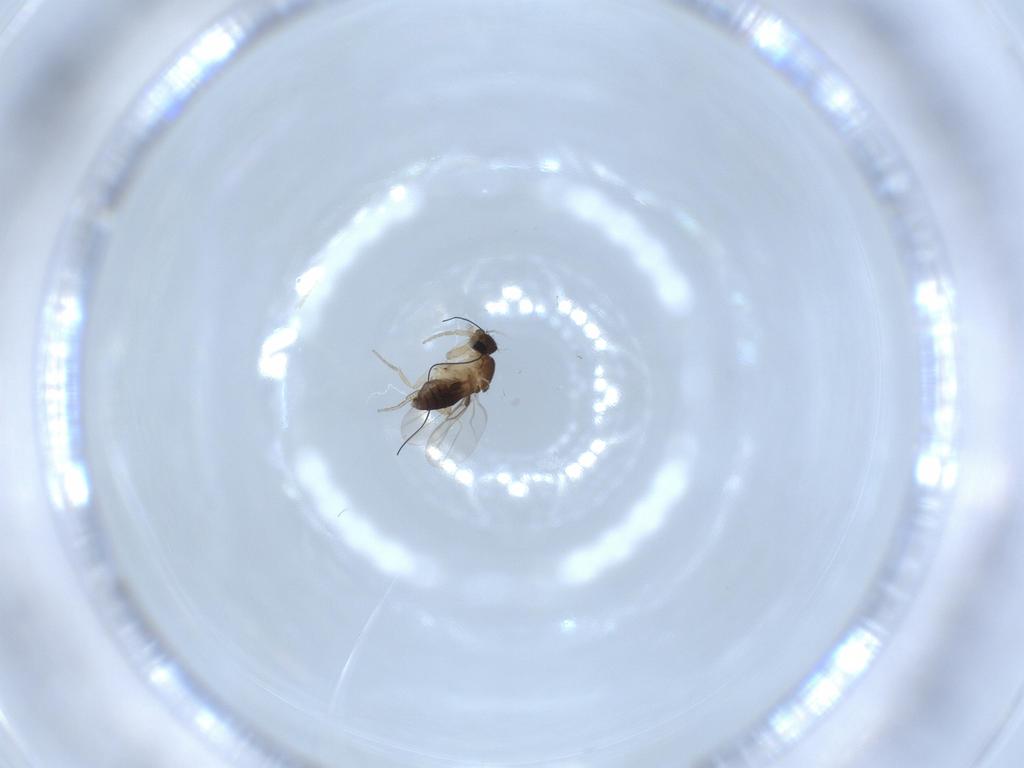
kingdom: Animalia
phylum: Arthropoda
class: Insecta
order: Diptera
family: Phoridae
